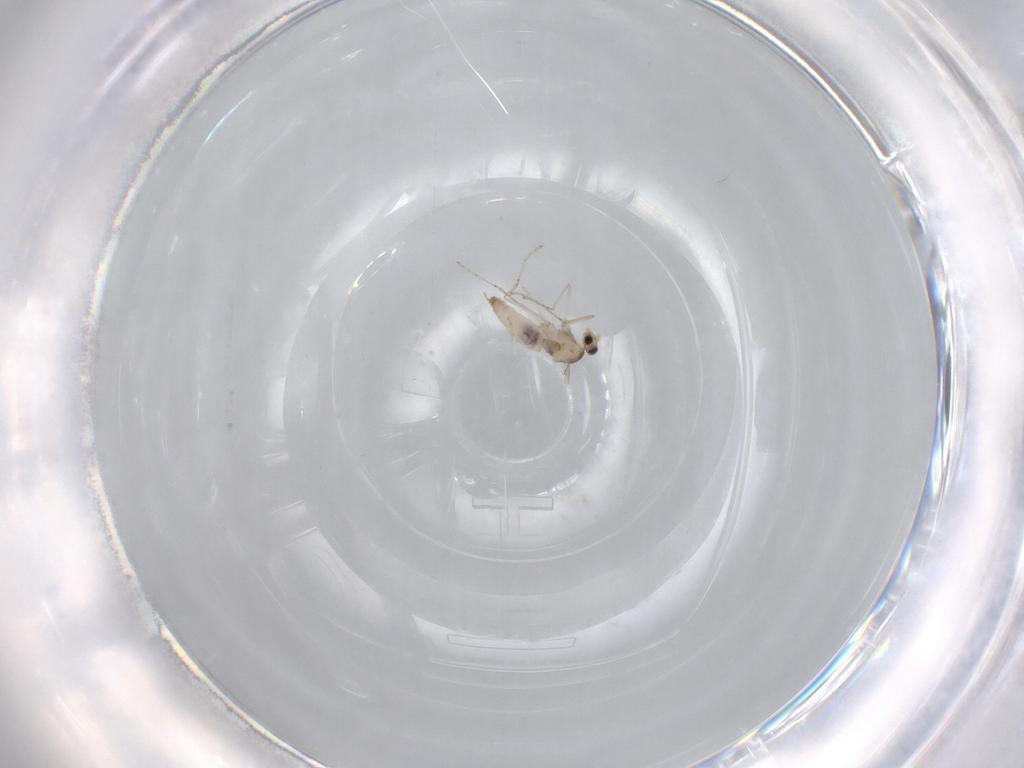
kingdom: Animalia
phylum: Arthropoda
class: Insecta
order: Diptera
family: Cecidomyiidae
